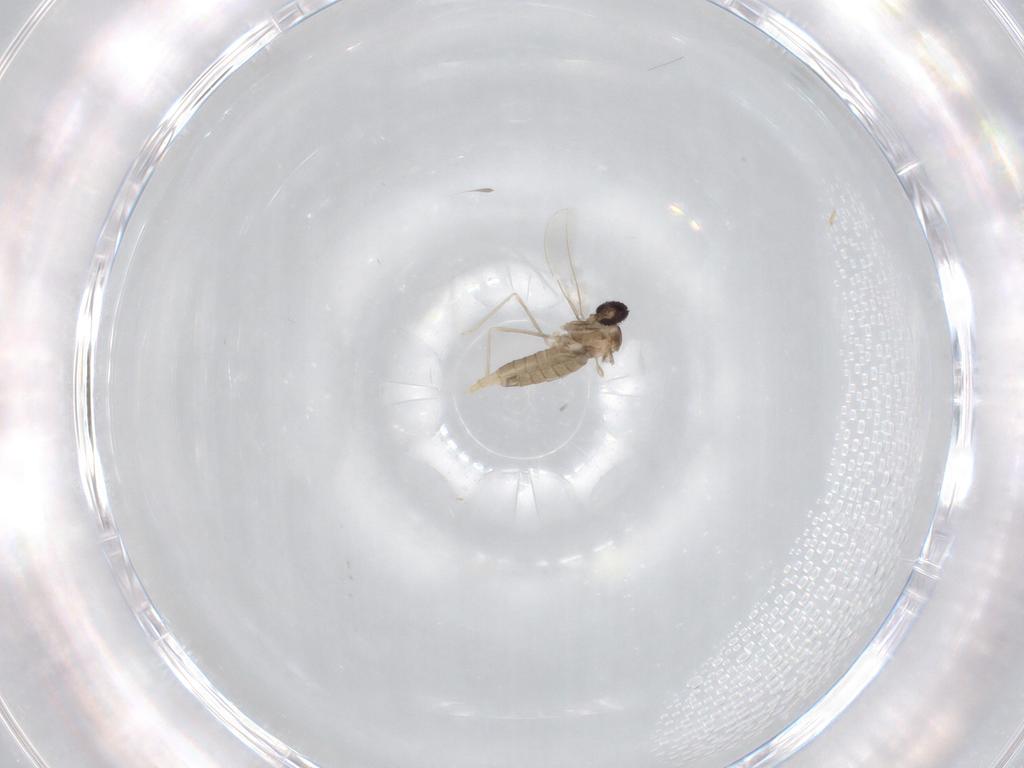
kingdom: Animalia
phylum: Arthropoda
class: Insecta
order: Diptera
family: Cecidomyiidae
